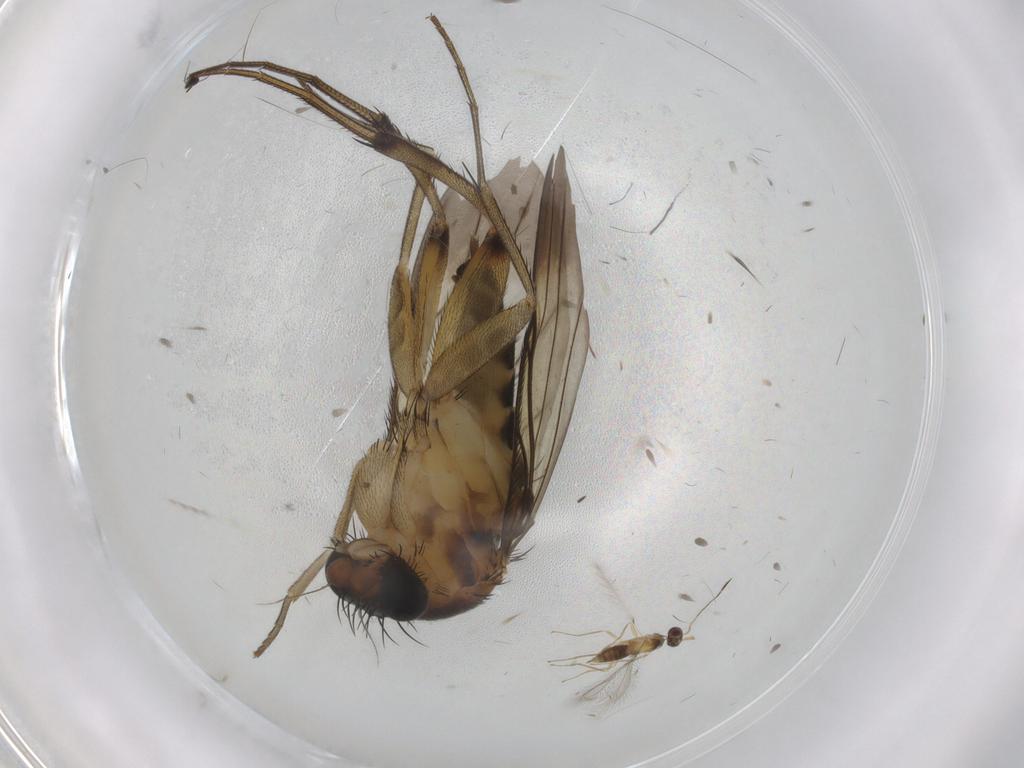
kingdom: Animalia
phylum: Arthropoda
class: Insecta
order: Diptera
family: Phoridae
